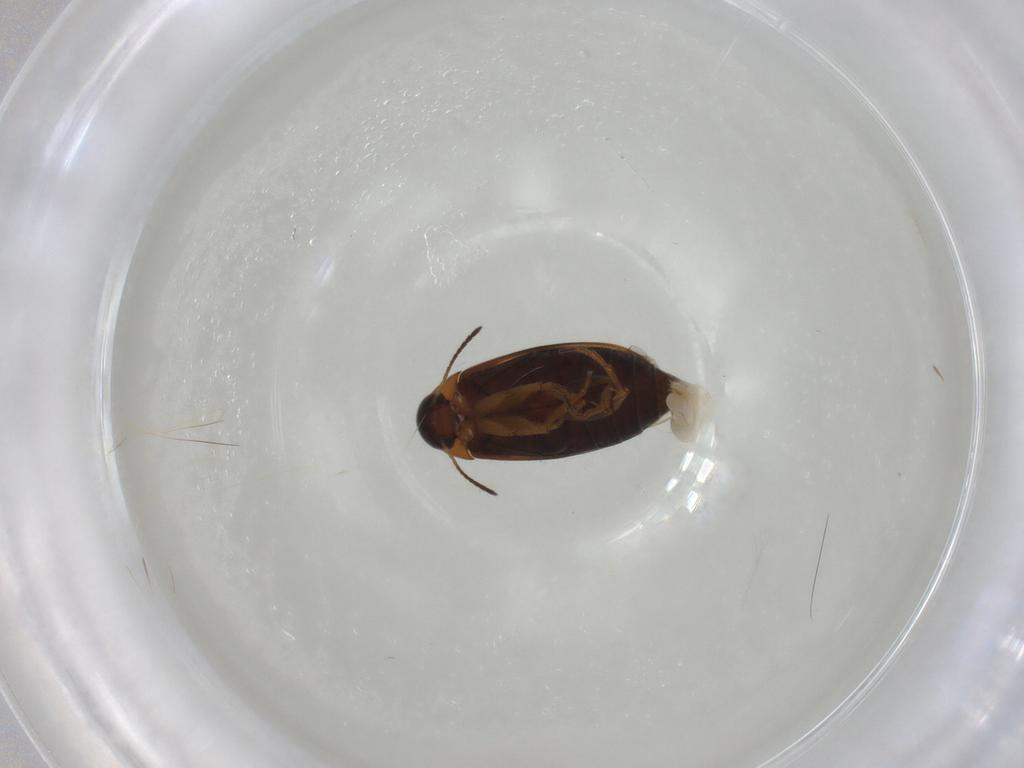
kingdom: Animalia
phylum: Arthropoda
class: Insecta
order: Coleoptera
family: Scraptiidae
